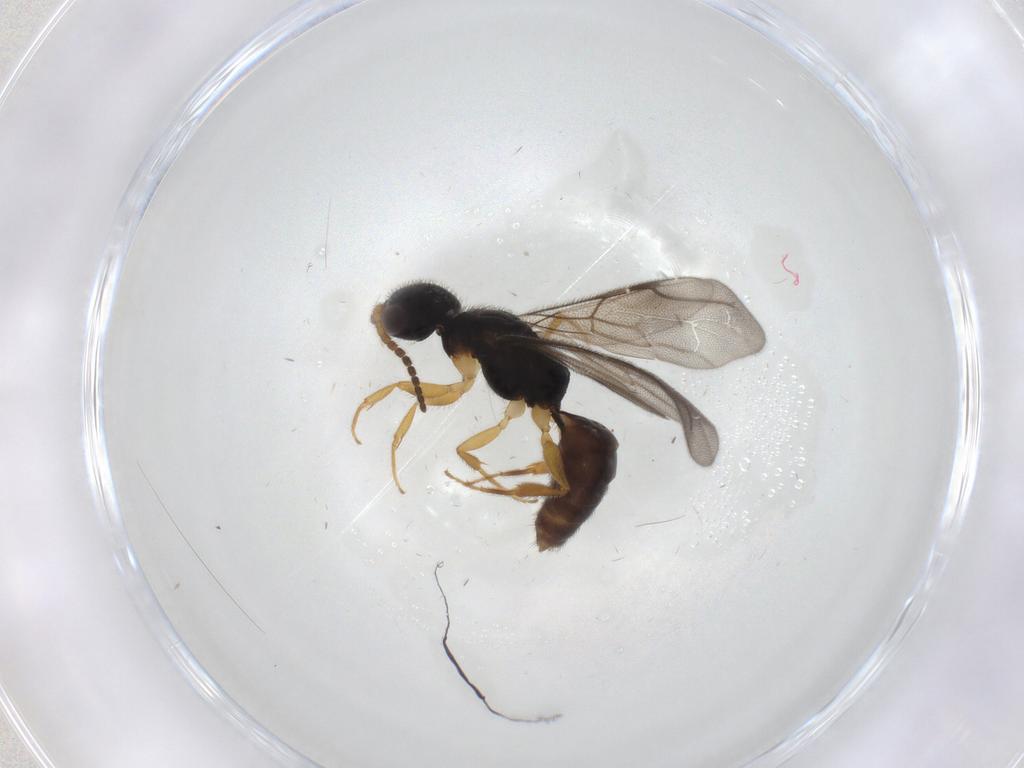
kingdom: Animalia
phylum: Arthropoda
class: Insecta
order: Hymenoptera
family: Bethylidae
